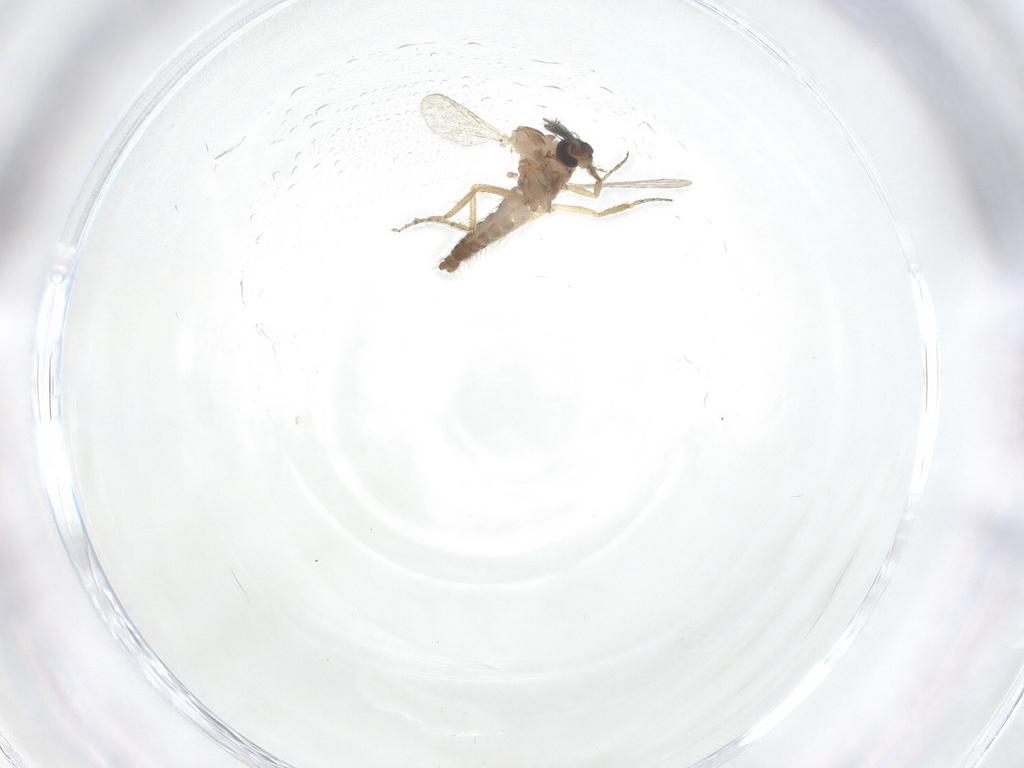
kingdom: Animalia
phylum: Arthropoda
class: Insecta
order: Diptera
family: Ceratopogonidae
